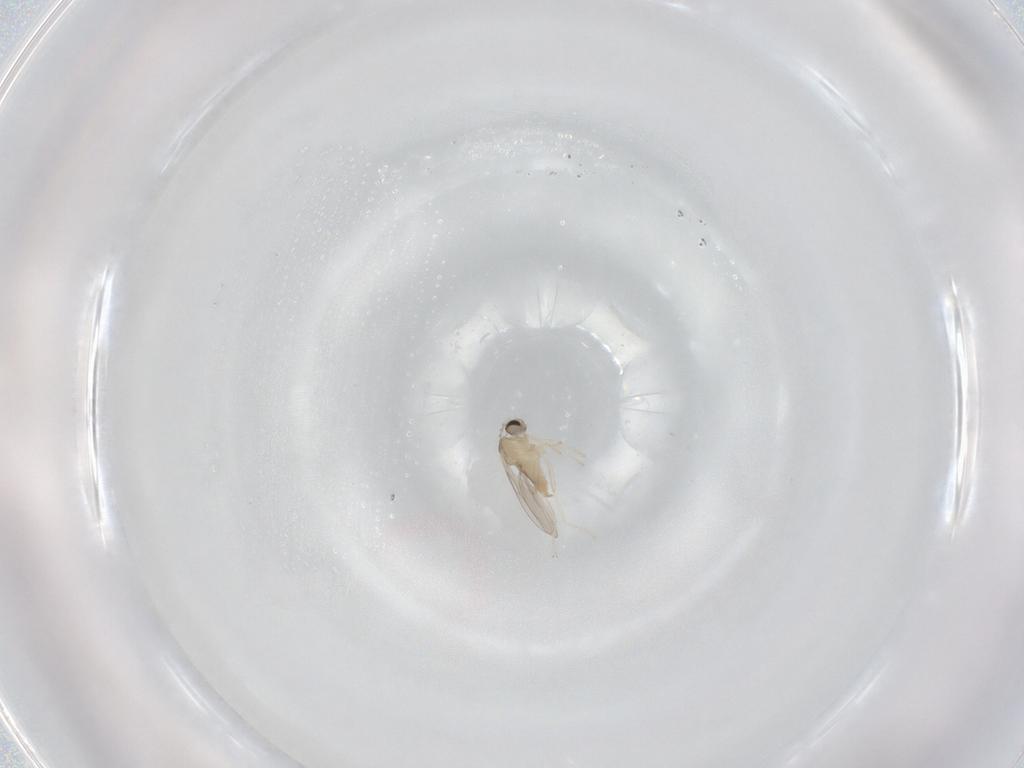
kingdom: Animalia
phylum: Arthropoda
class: Insecta
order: Diptera
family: Cecidomyiidae
